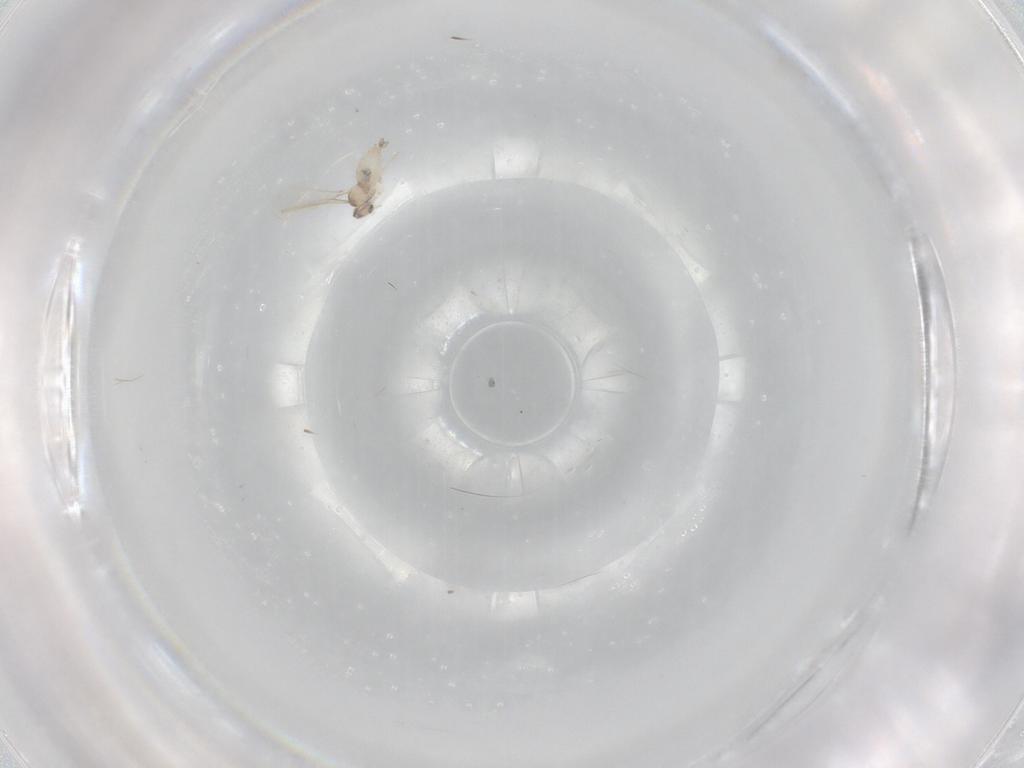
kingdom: Animalia
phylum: Arthropoda
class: Insecta
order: Diptera
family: Cecidomyiidae
